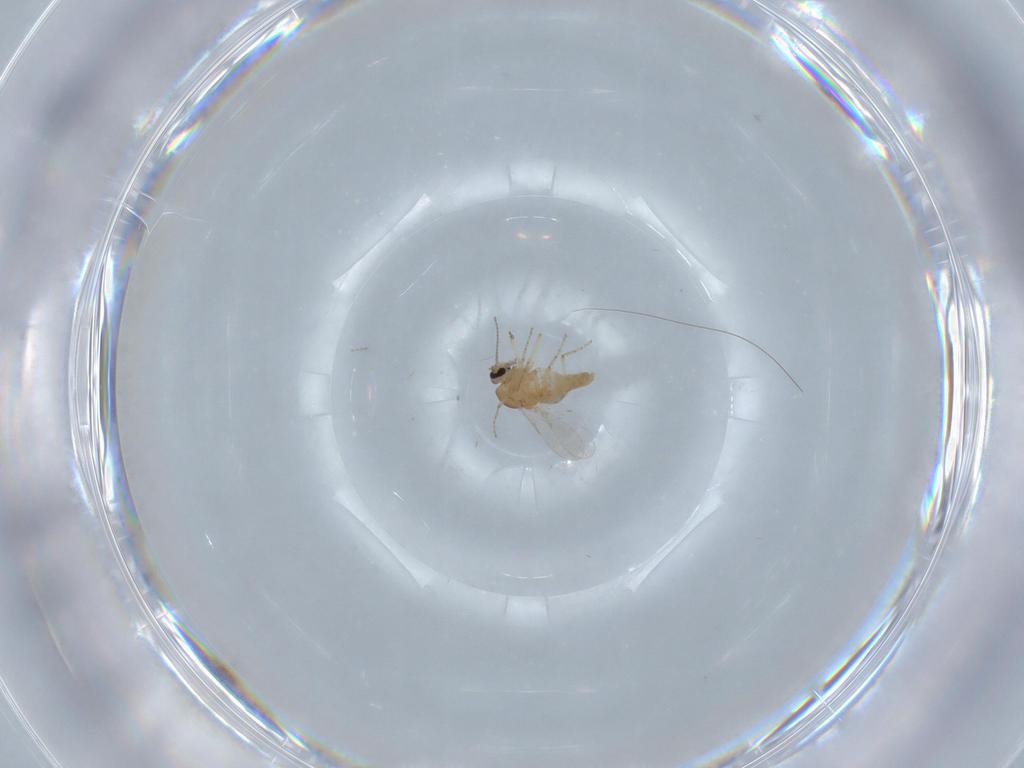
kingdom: Animalia
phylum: Arthropoda
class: Insecta
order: Diptera
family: Ceratopogonidae
